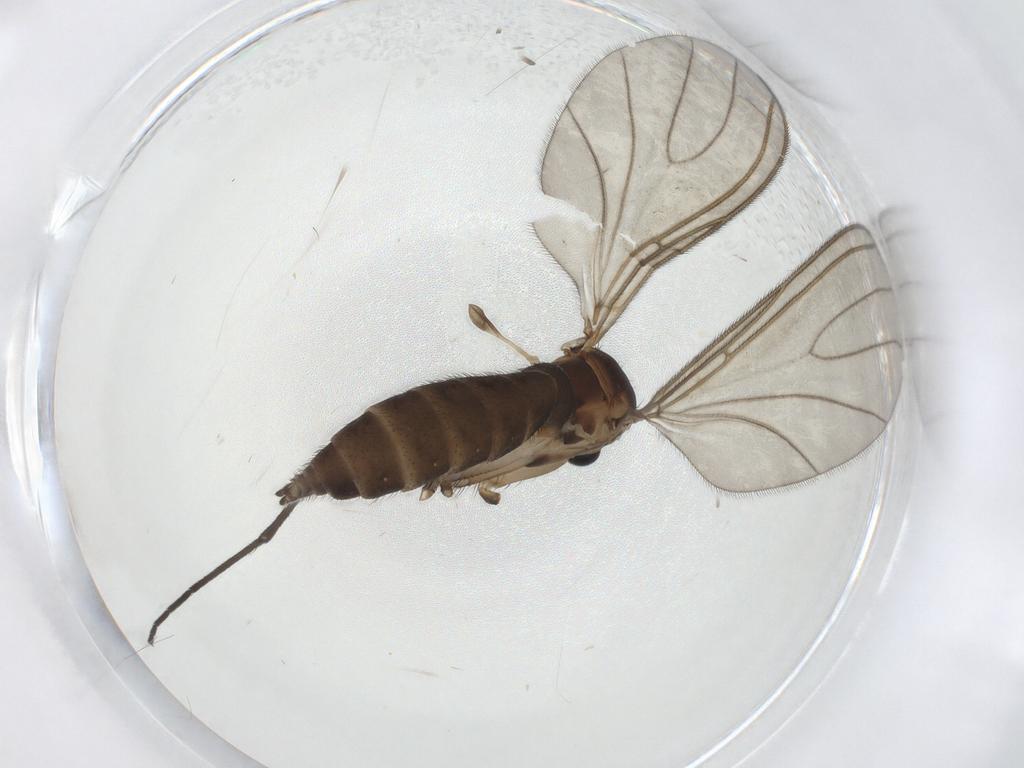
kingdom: Animalia
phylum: Arthropoda
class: Insecta
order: Diptera
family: Sciaridae
